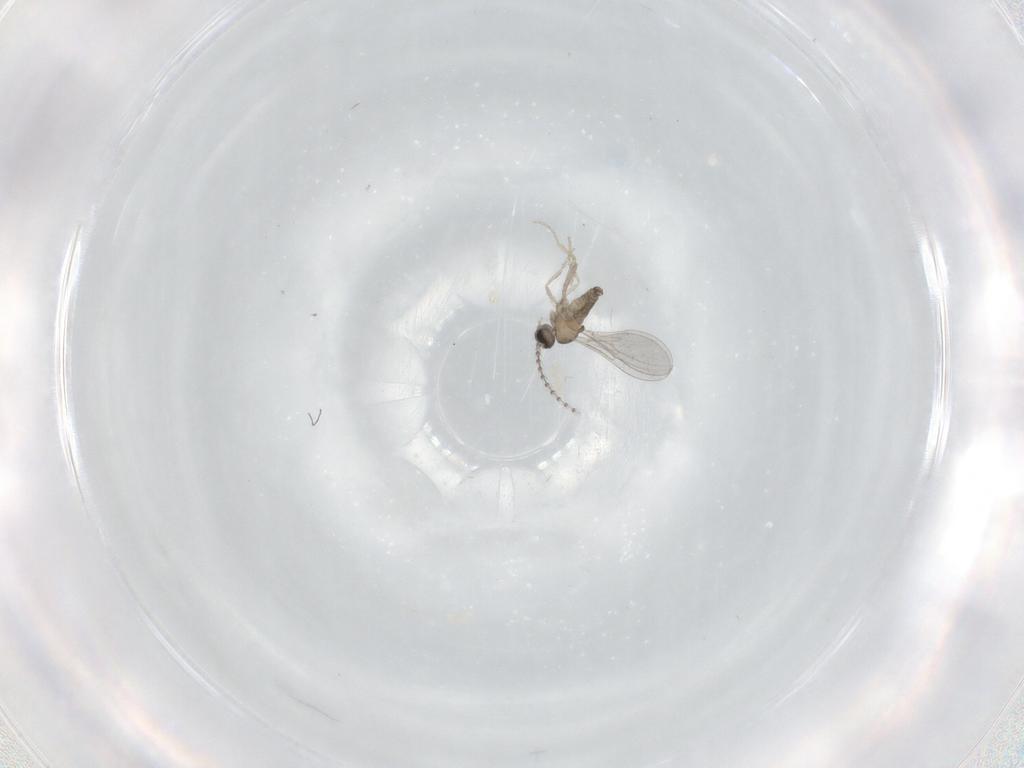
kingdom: Animalia
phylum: Arthropoda
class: Insecta
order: Diptera
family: Cecidomyiidae
